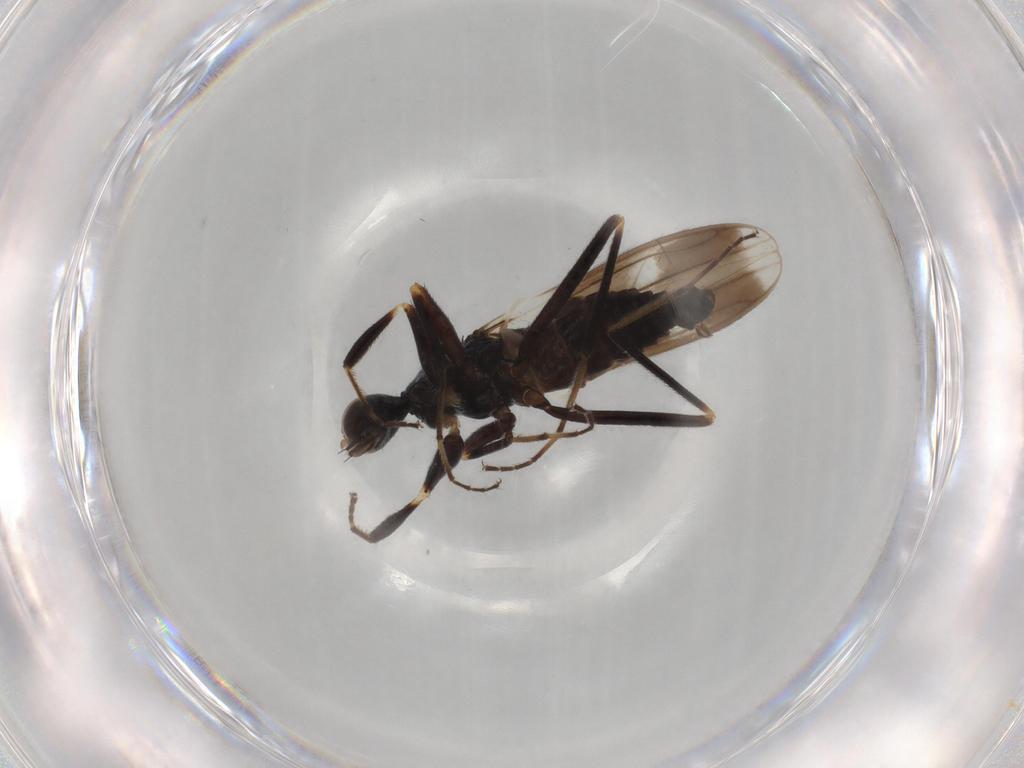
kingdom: Animalia
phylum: Arthropoda
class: Insecta
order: Diptera
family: Hybotidae
